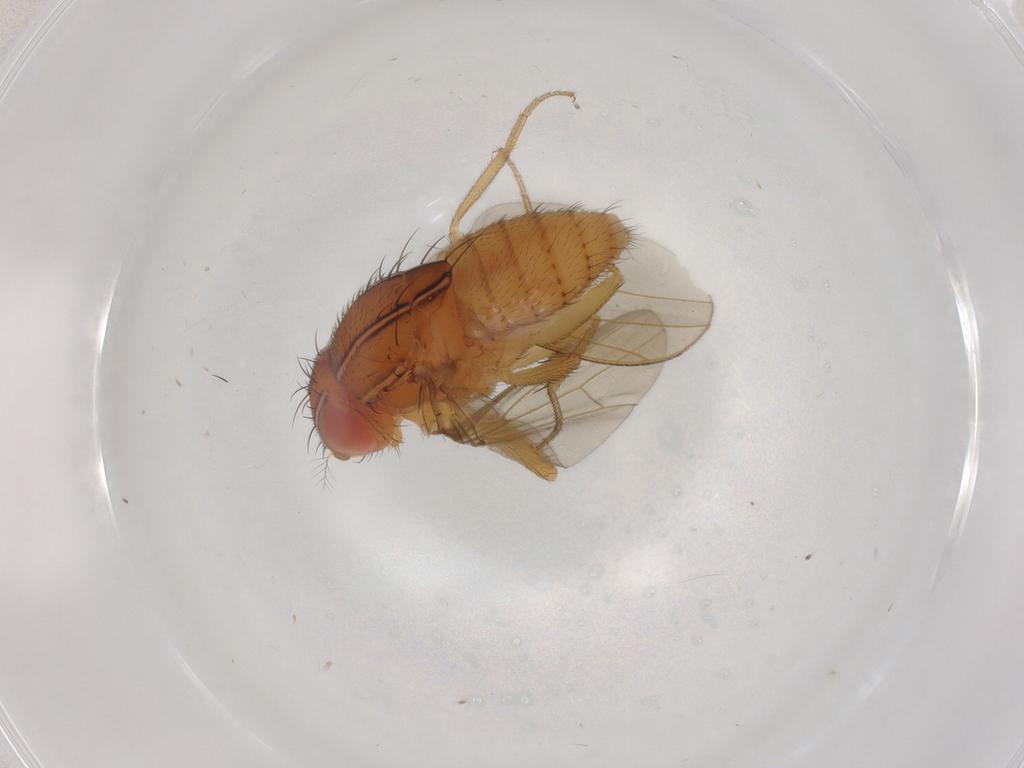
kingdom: Animalia
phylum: Arthropoda
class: Insecta
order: Diptera
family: Drosophilidae
